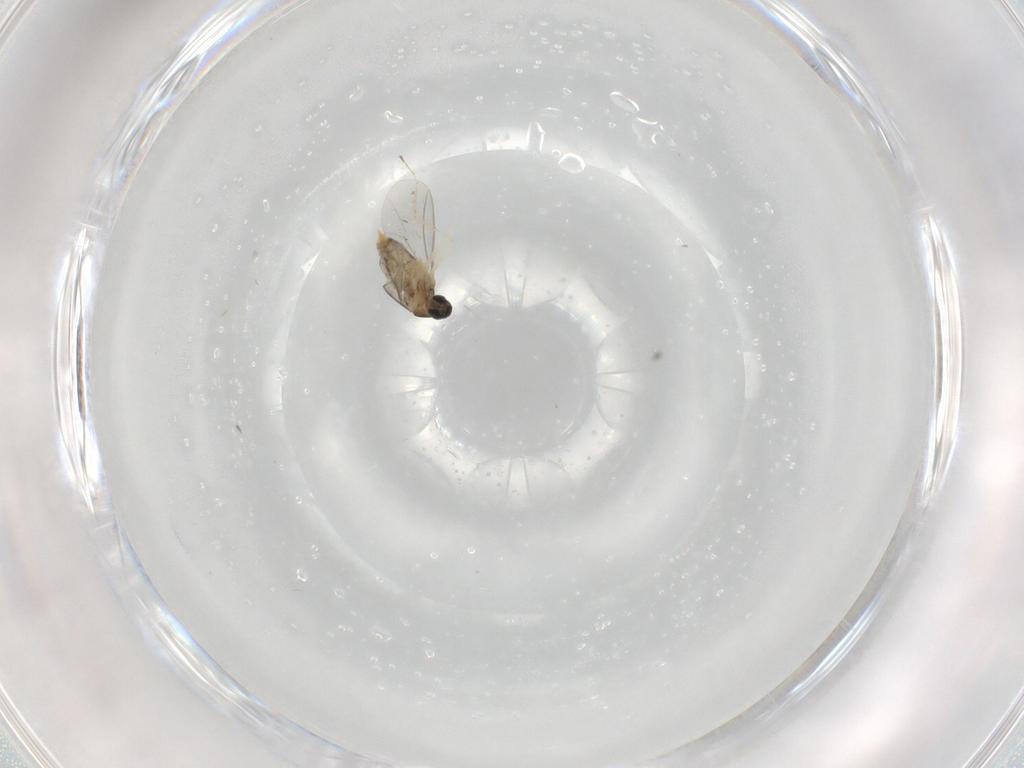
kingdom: Animalia
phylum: Arthropoda
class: Insecta
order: Diptera
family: Cecidomyiidae
